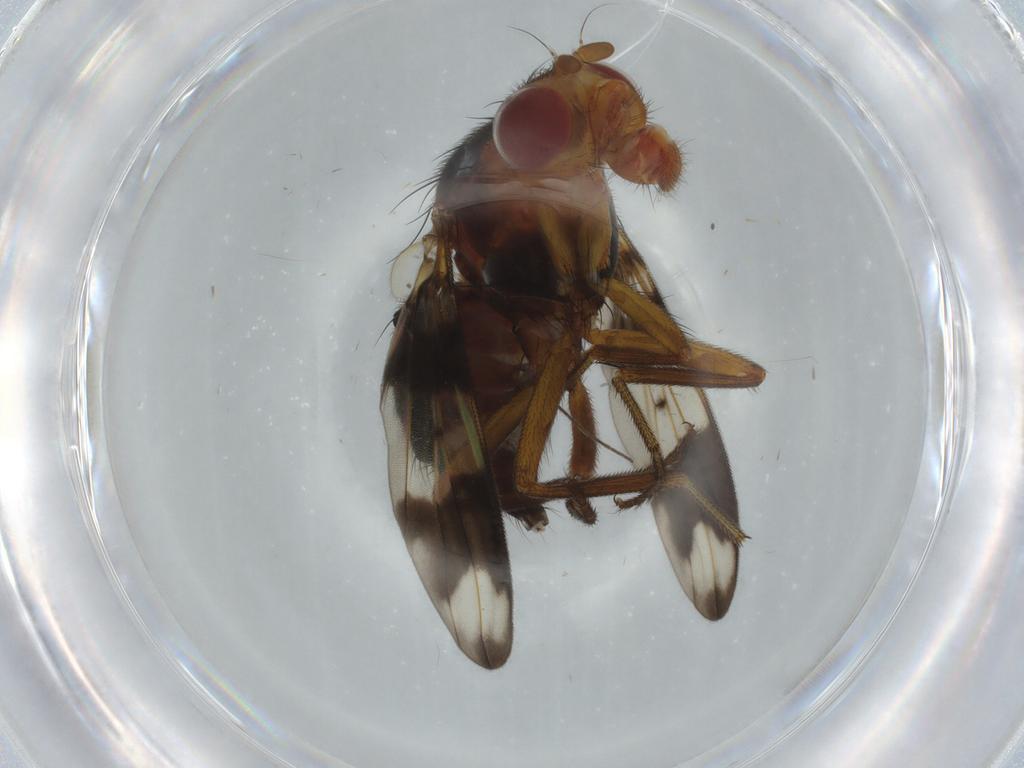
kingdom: Animalia
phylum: Arthropoda
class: Insecta
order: Diptera
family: Richardiidae
